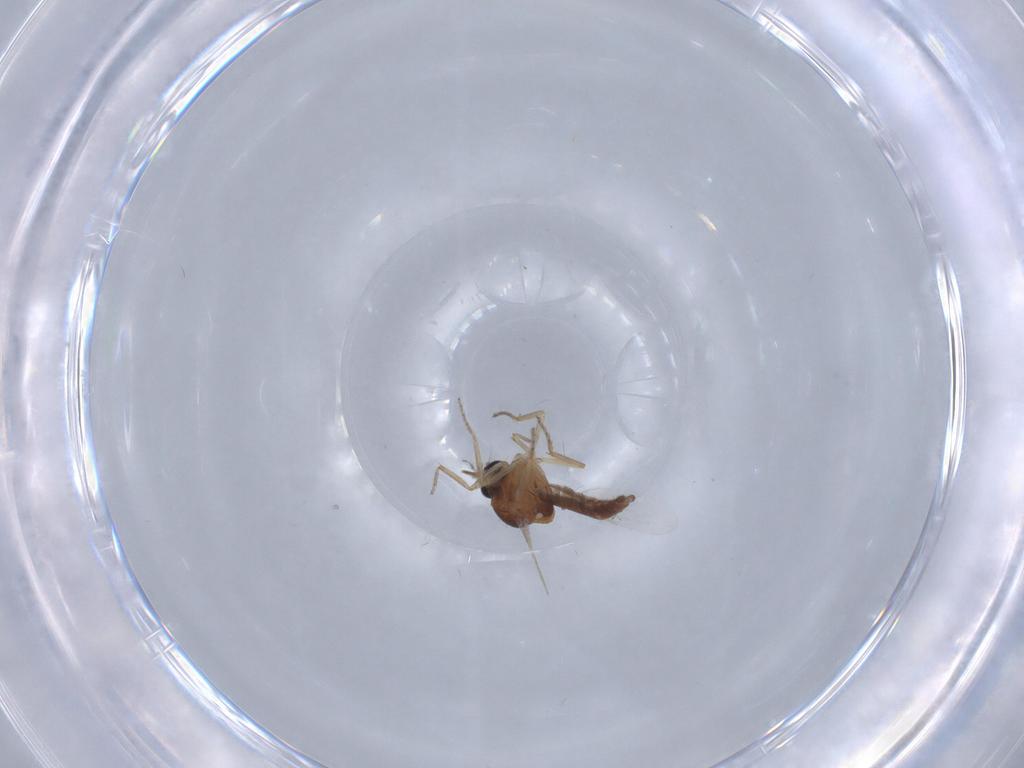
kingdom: Animalia
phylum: Arthropoda
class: Insecta
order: Diptera
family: Ceratopogonidae
